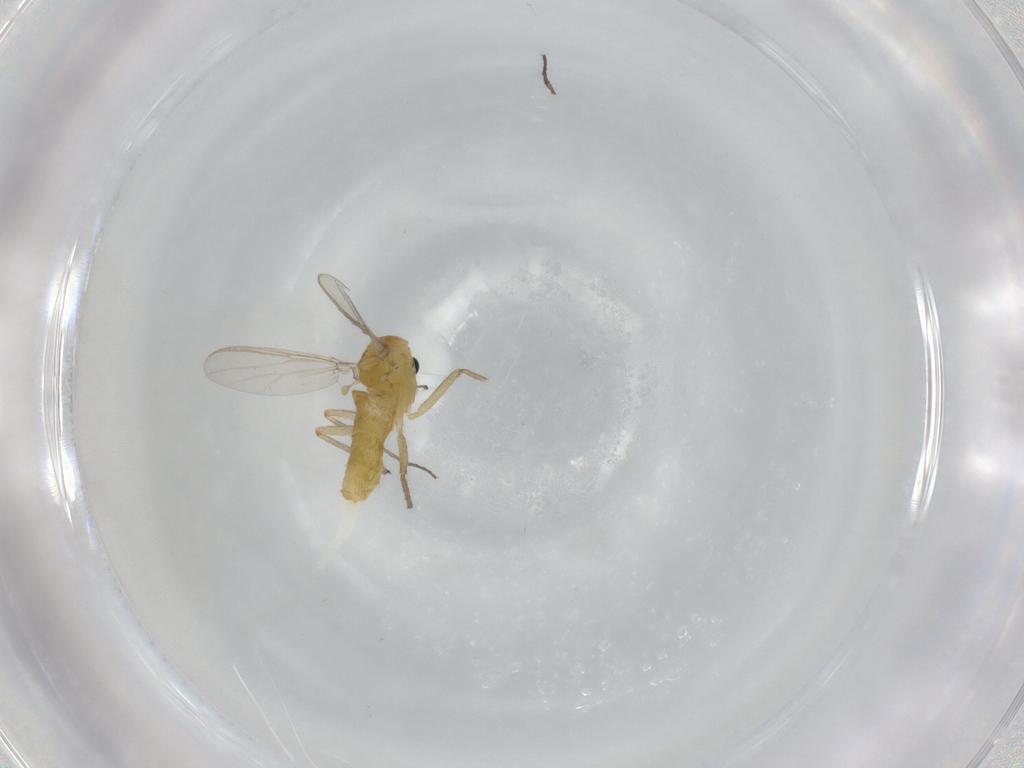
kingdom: Animalia
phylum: Arthropoda
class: Insecta
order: Diptera
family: Chironomidae
